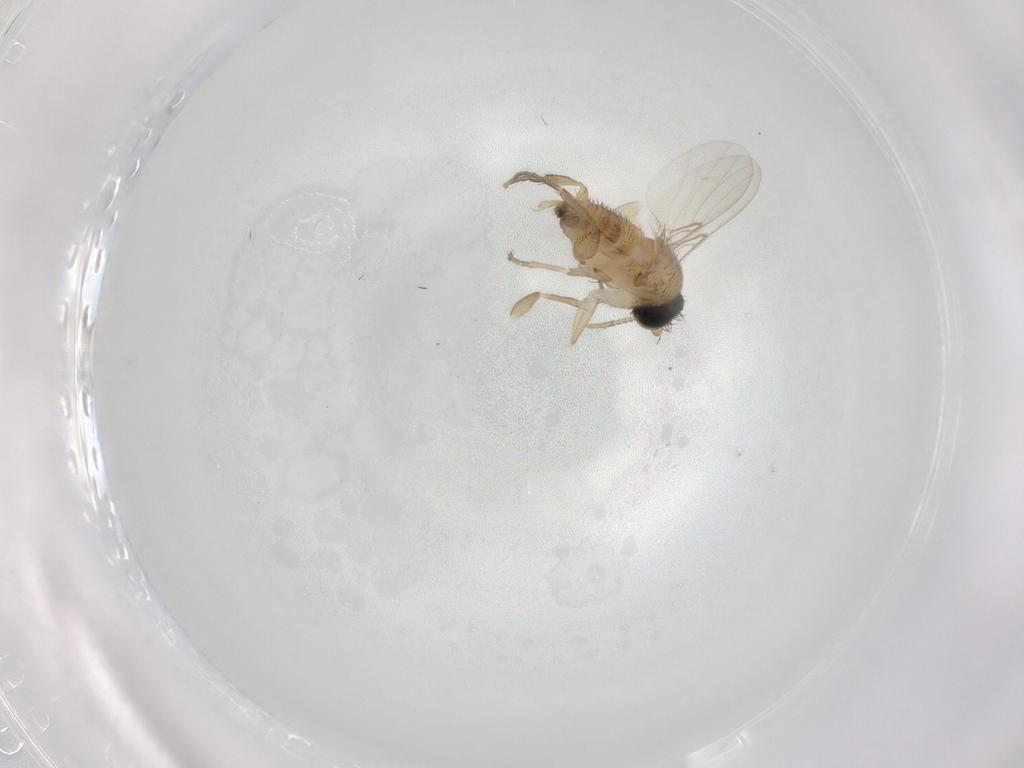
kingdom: Animalia
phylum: Arthropoda
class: Insecta
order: Diptera
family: Phoridae
